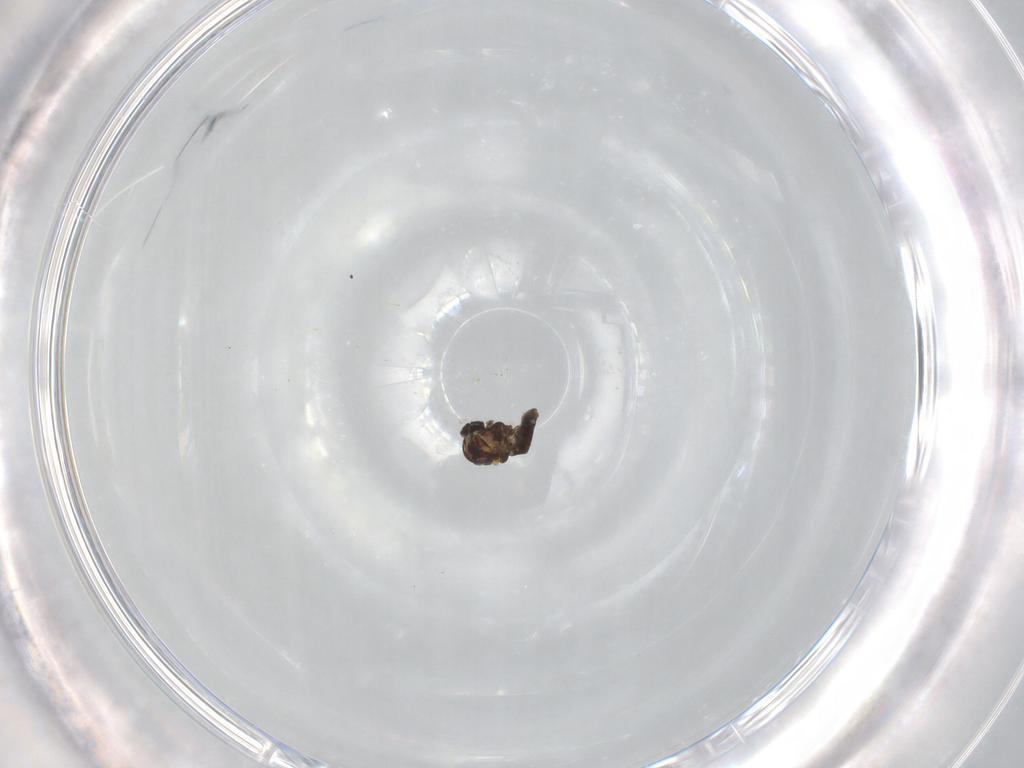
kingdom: Animalia
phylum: Arthropoda
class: Insecta
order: Diptera
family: Ceratopogonidae
